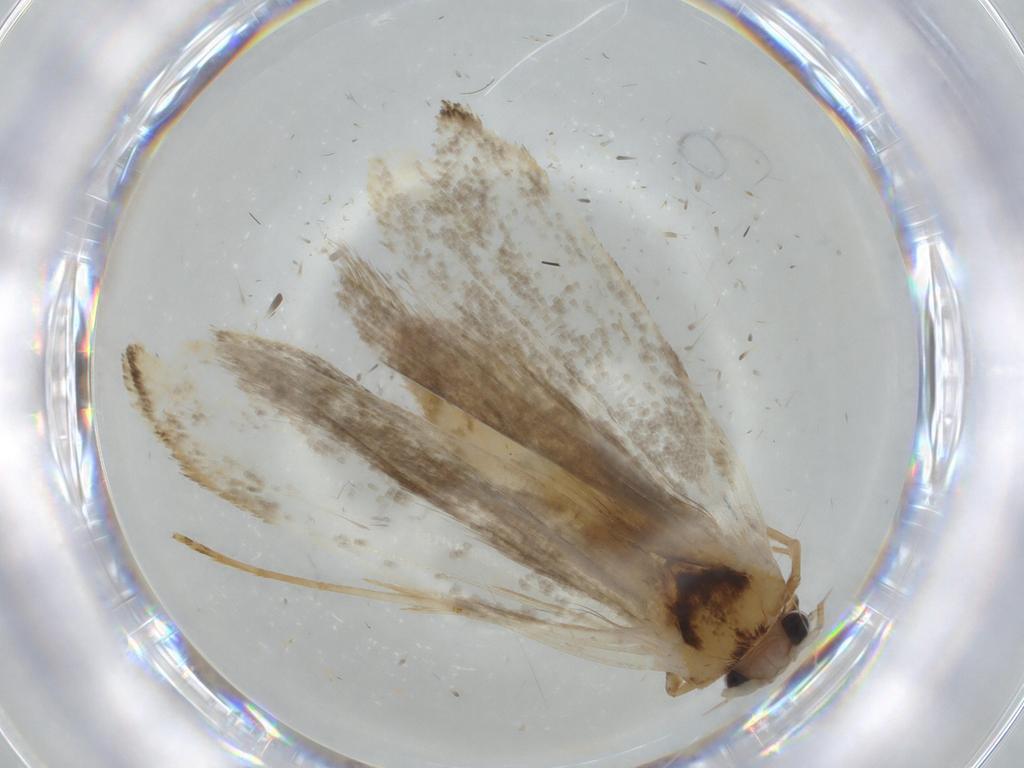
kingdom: Animalia
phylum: Arthropoda
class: Insecta
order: Lepidoptera
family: Tineidae
